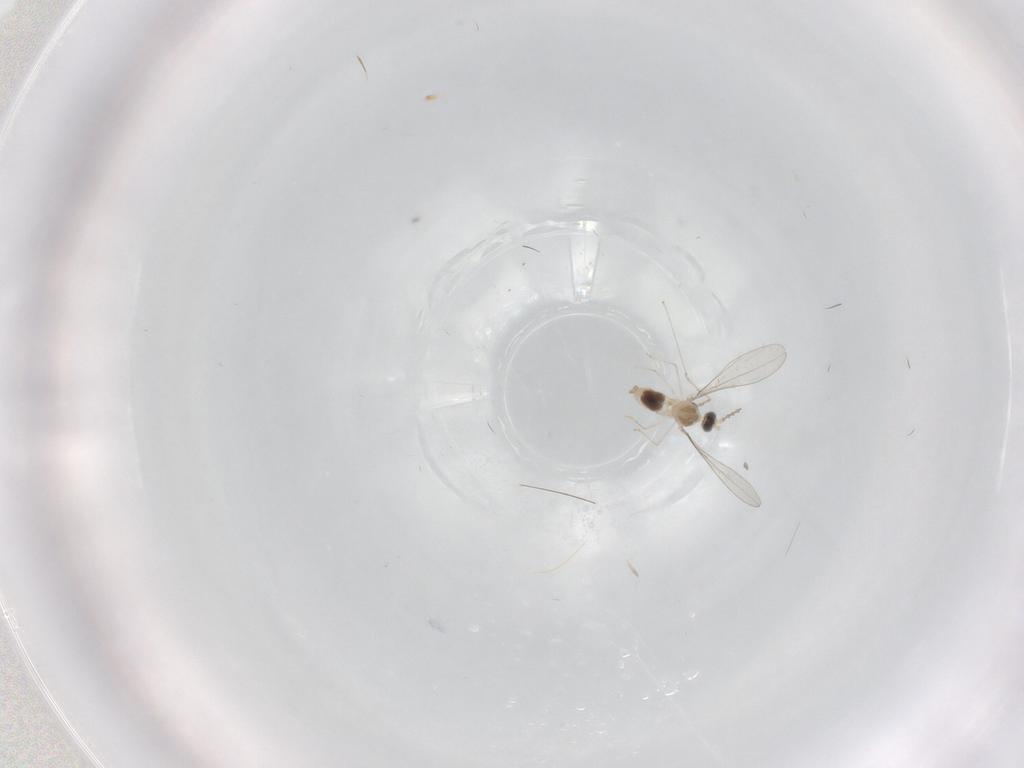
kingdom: Animalia
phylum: Arthropoda
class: Insecta
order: Diptera
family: Syrphidae
